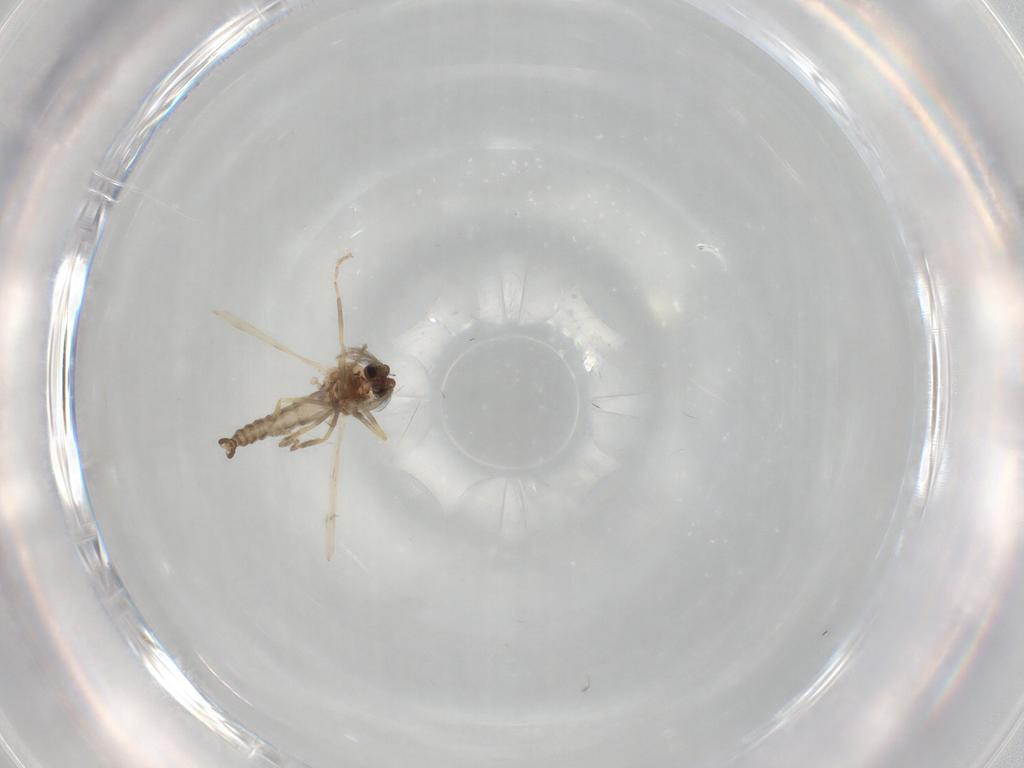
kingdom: Animalia
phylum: Arthropoda
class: Insecta
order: Diptera
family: Ceratopogonidae
